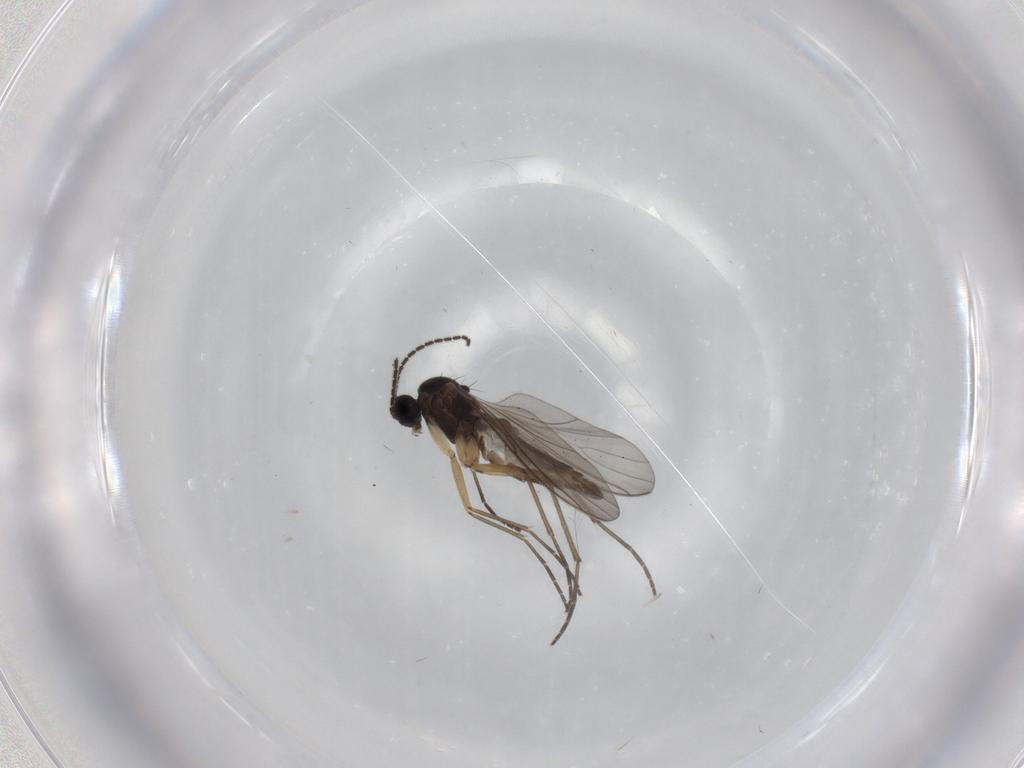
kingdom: Animalia
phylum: Arthropoda
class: Insecta
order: Diptera
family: Sciaridae
